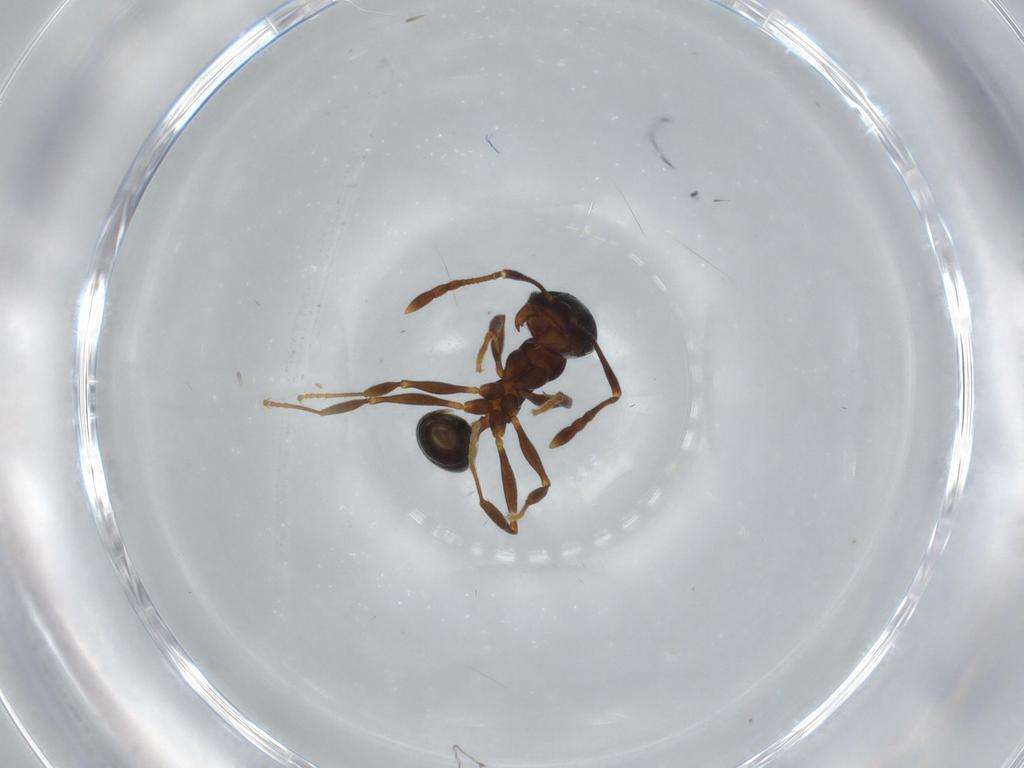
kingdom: Animalia
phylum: Arthropoda
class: Insecta
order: Hymenoptera
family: Formicidae
